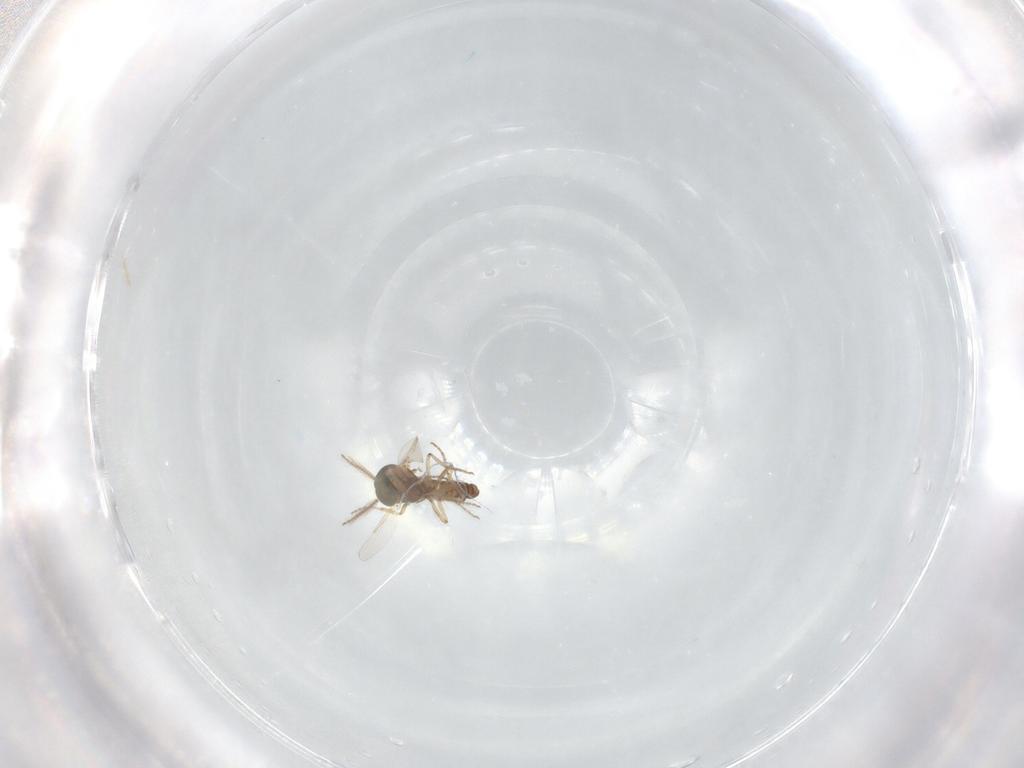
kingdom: Animalia
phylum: Arthropoda
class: Insecta
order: Diptera
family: Ceratopogonidae
